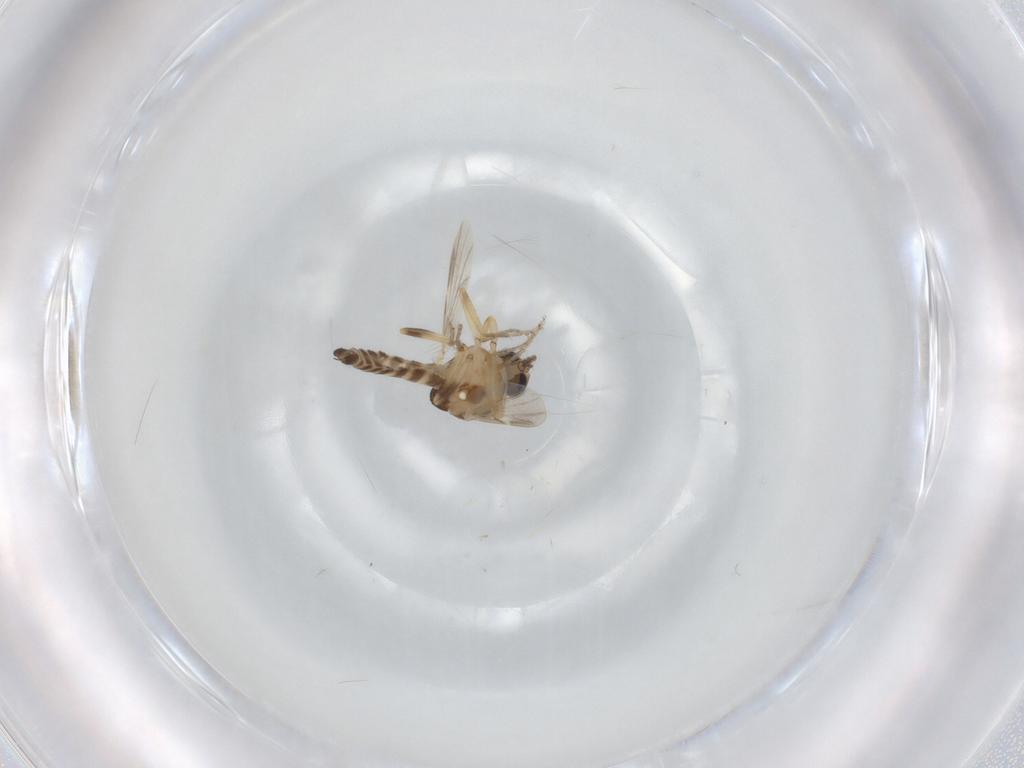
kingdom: Animalia
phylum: Arthropoda
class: Insecta
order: Diptera
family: Ceratopogonidae
